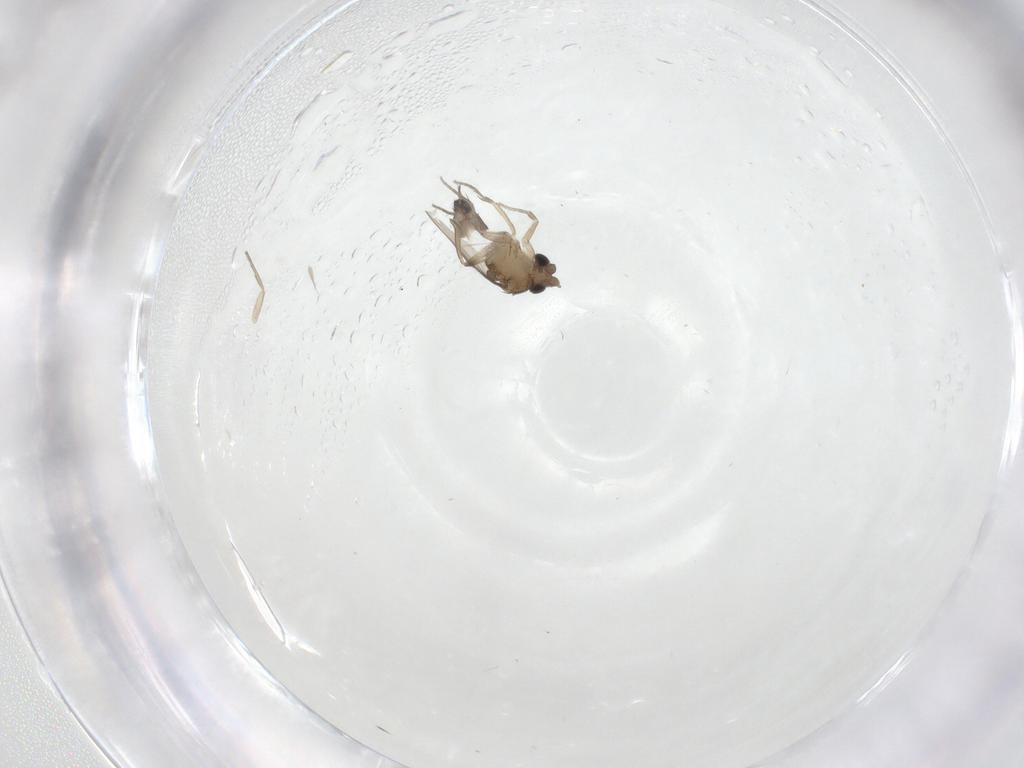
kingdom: Animalia
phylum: Arthropoda
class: Insecta
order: Diptera
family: Phoridae
